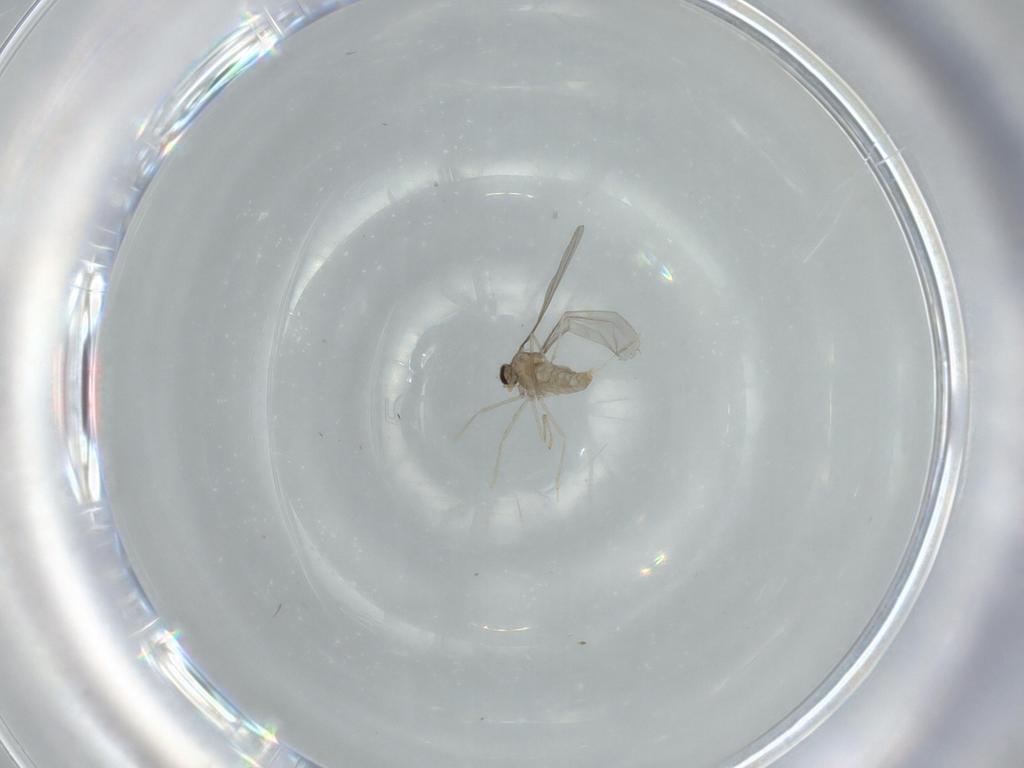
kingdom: Animalia
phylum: Arthropoda
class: Insecta
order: Diptera
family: Cecidomyiidae
